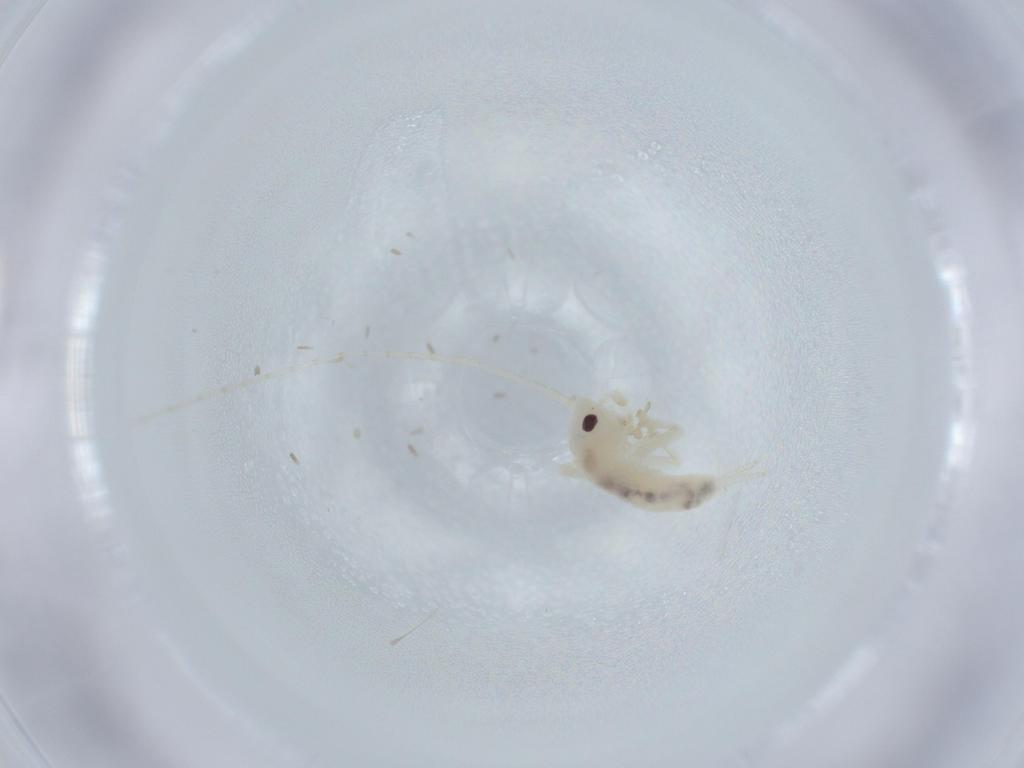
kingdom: Animalia
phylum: Arthropoda
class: Insecta
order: Orthoptera
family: Trigonidiidae
